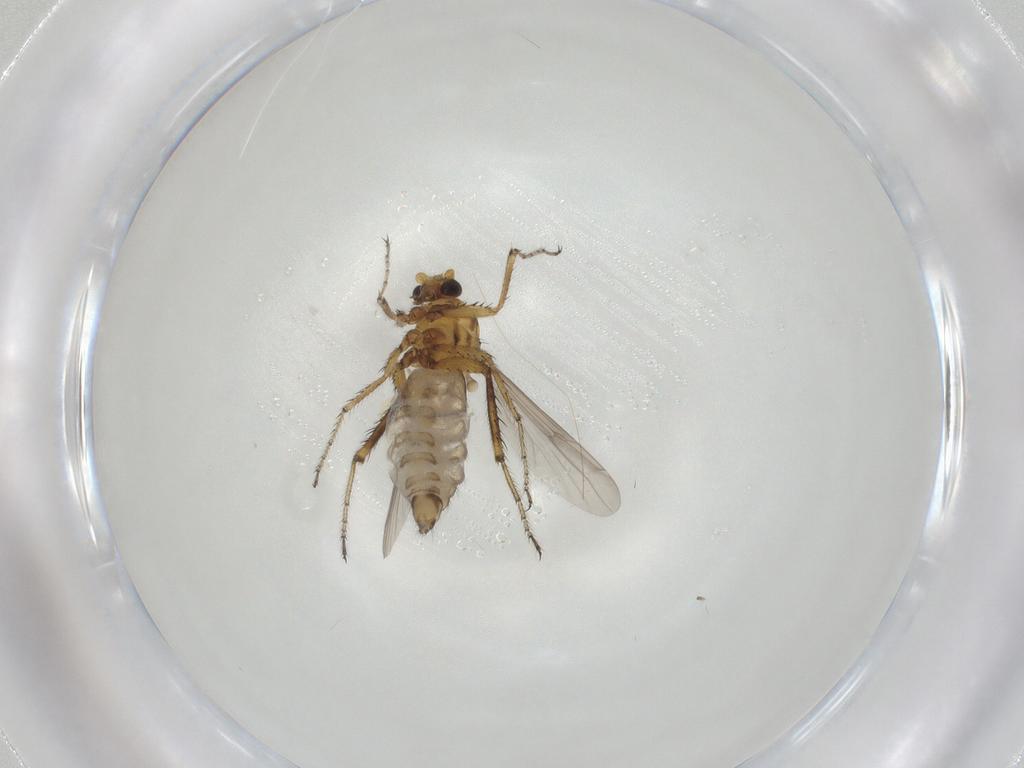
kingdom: Animalia
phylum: Arthropoda
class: Insecta
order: Diptera
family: Ceratopogonidae
